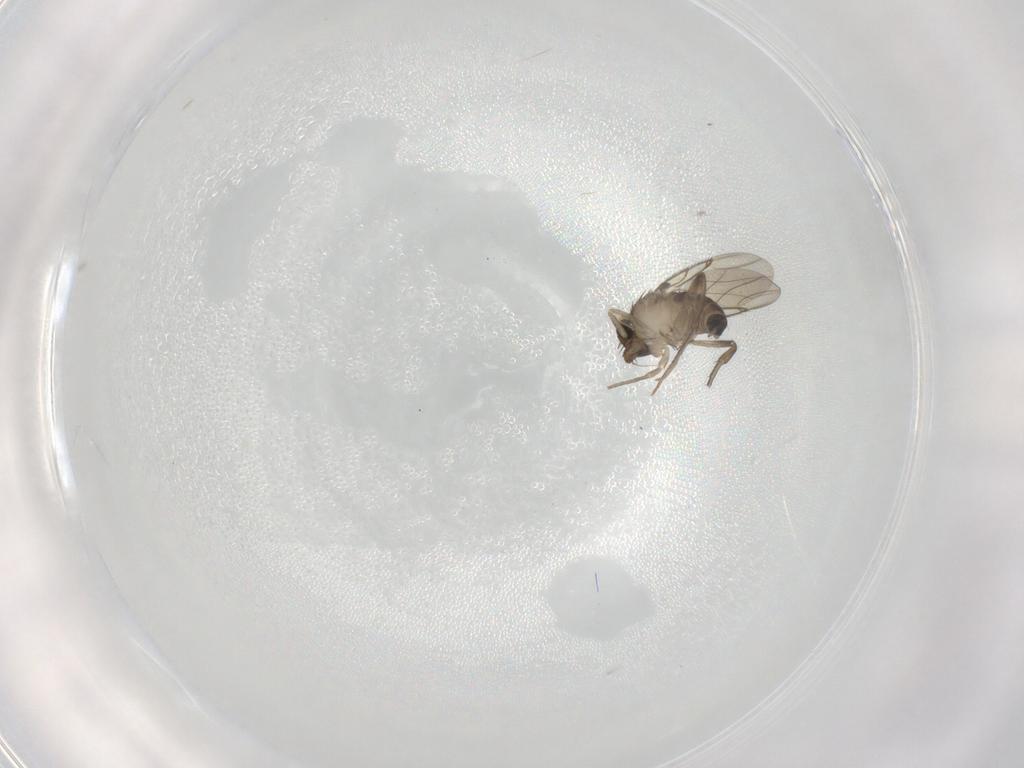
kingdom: Animalia
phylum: Arthropoda
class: Insecta
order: Diptera
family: Phoridae
